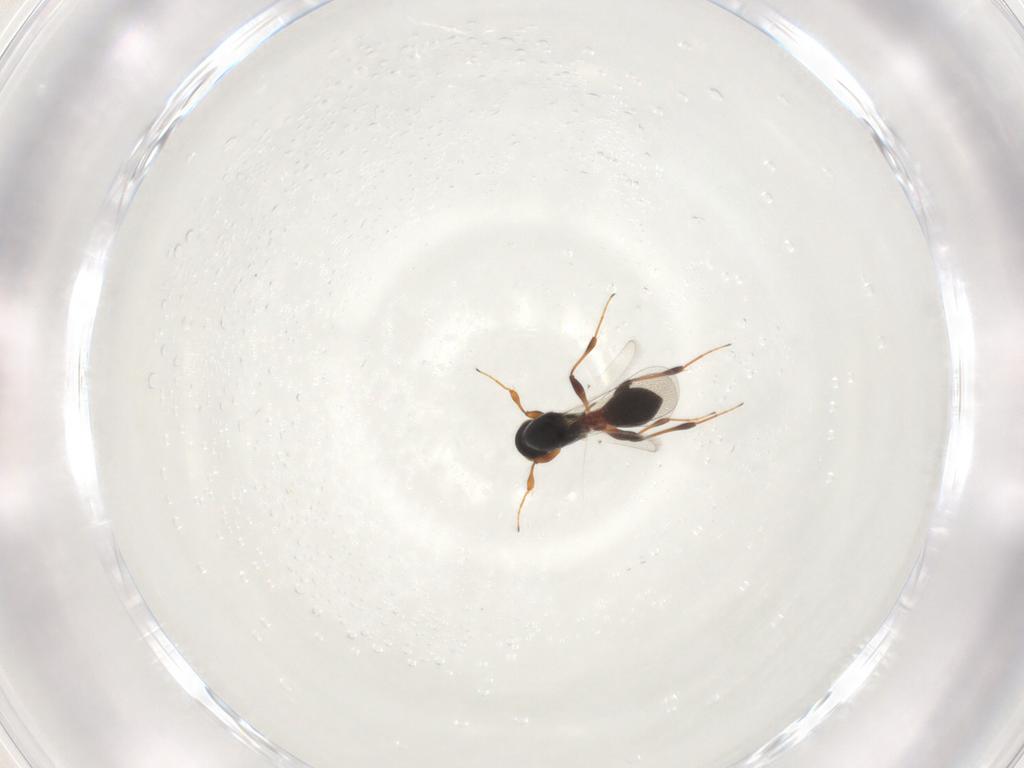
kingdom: Animalia
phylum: Arthropoda
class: Insecta
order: Hymenoptera
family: Platygastridae
